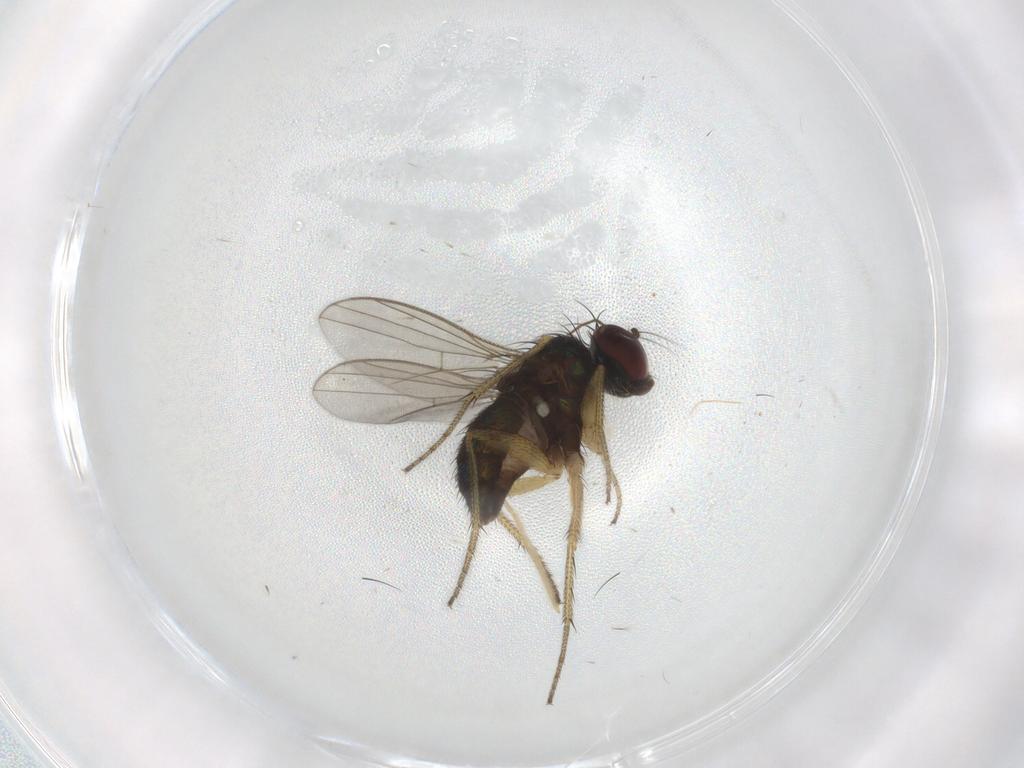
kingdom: Animalia
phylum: Arthropoda
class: Insecta
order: Diptera
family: Dolichopodidae
